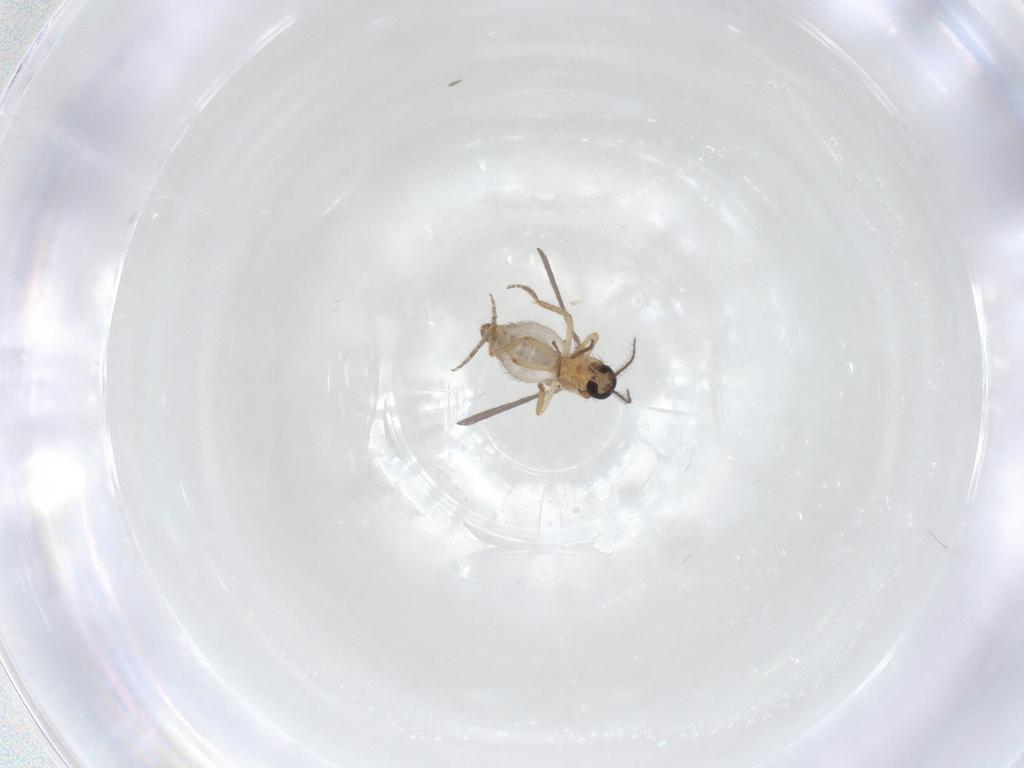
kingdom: Animalia
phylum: Arthropoda
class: Insecta
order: Diptera
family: Ceratopogonidae
